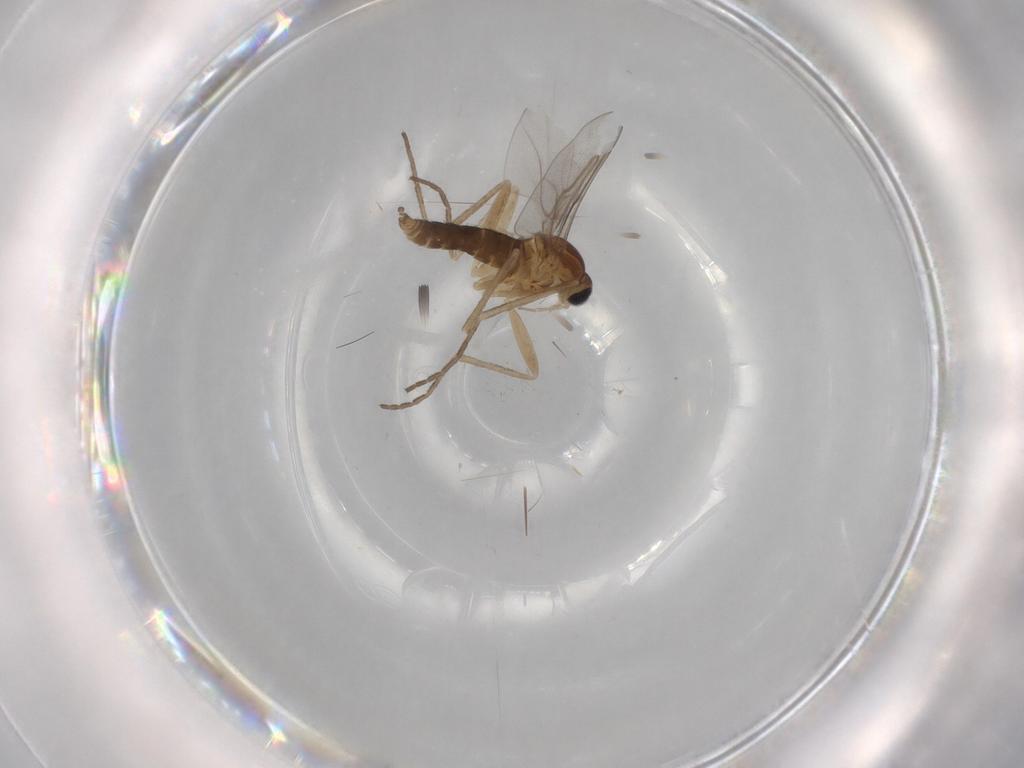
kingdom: Animalia
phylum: Arthropoda
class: Insecta
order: Diptera
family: Cecidomyiidae
